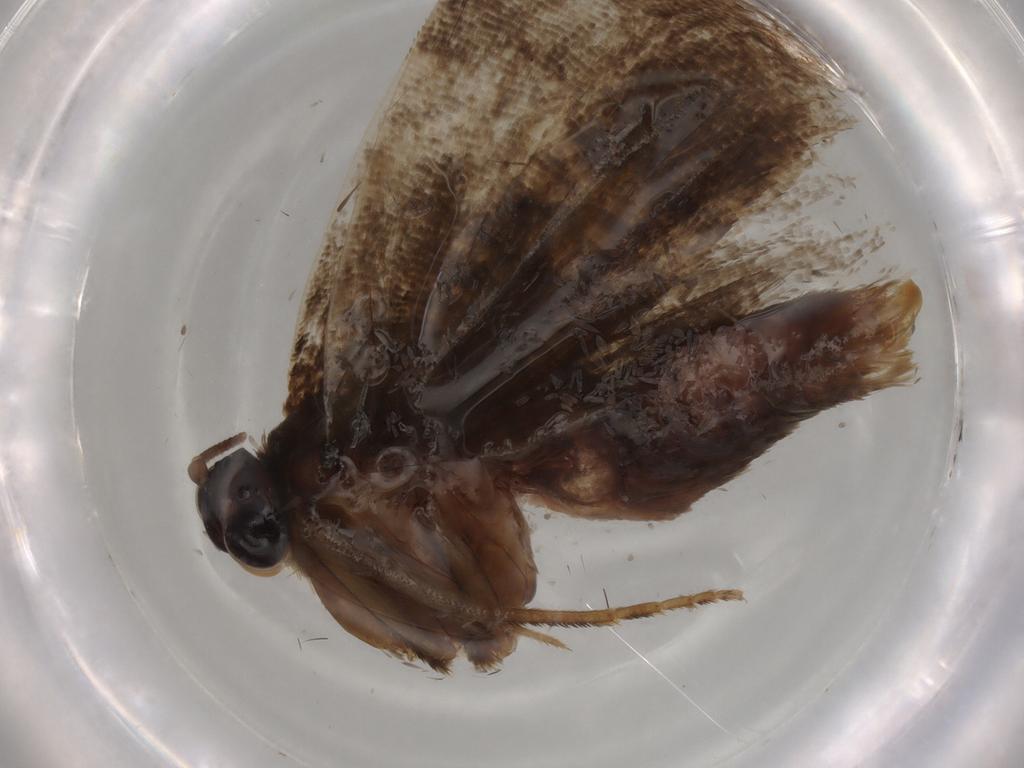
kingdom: Animalia
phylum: Arthropoda
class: Insecta
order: Lepidoptera
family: Tortricidae
